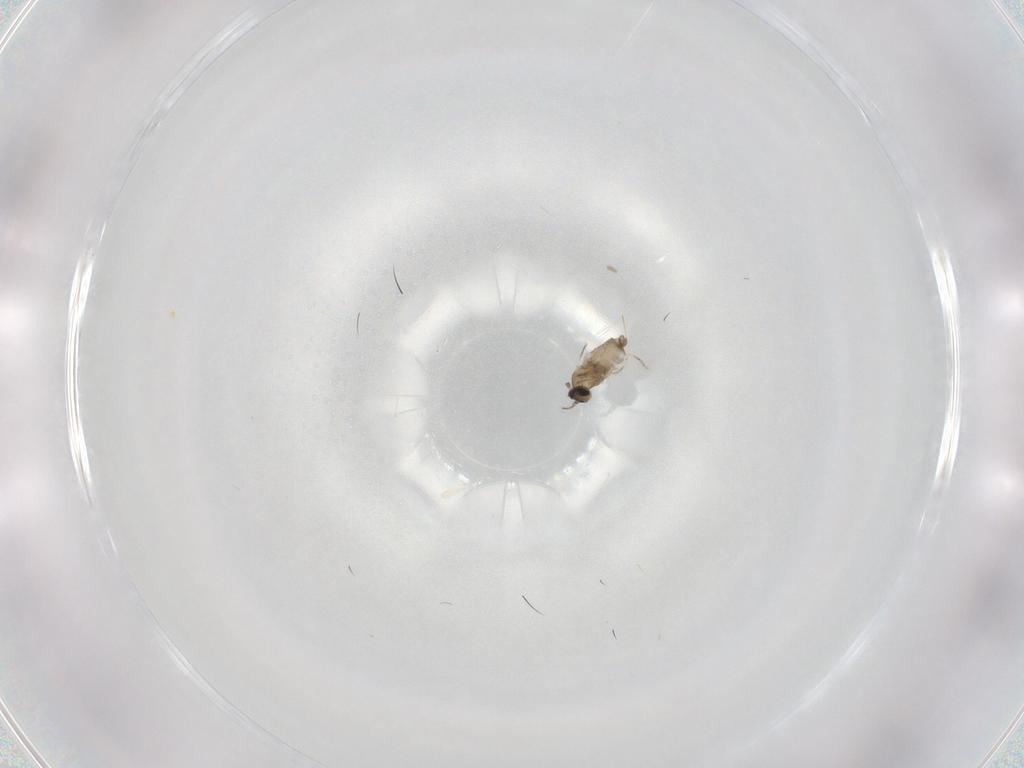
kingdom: Animalia
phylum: Arthropoda
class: Insecta
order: Diptera
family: Cecidomyiidae
